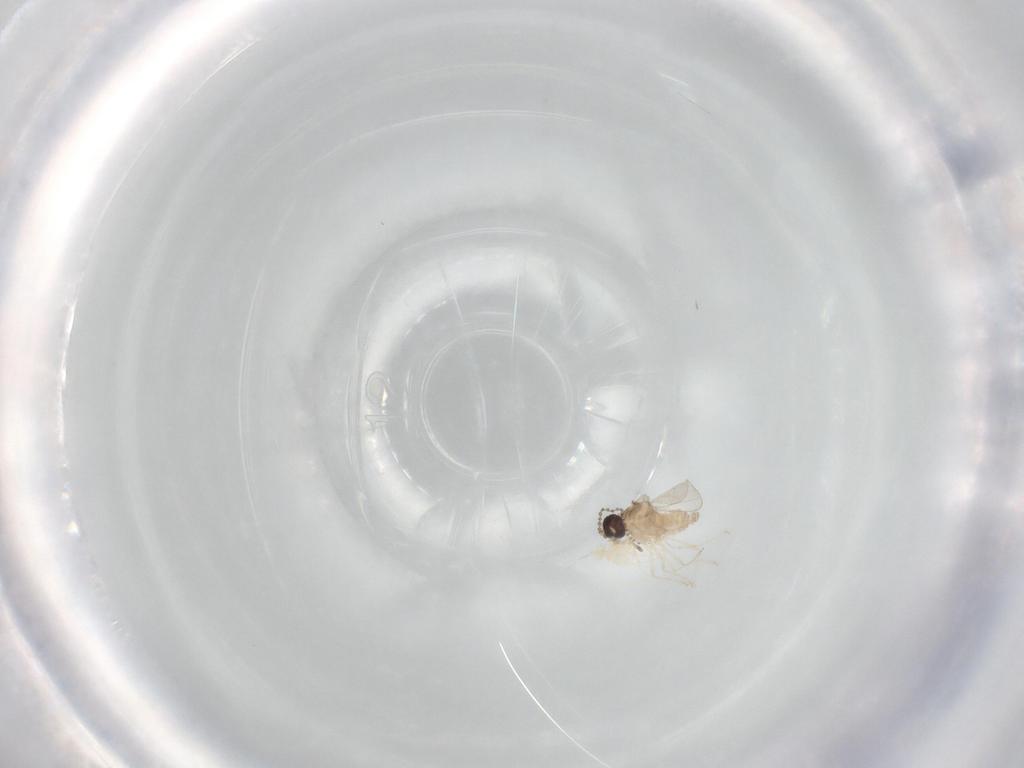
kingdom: Animalia
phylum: Arthropoda
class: Insecta
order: Diptera
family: Cecidomyiidae
